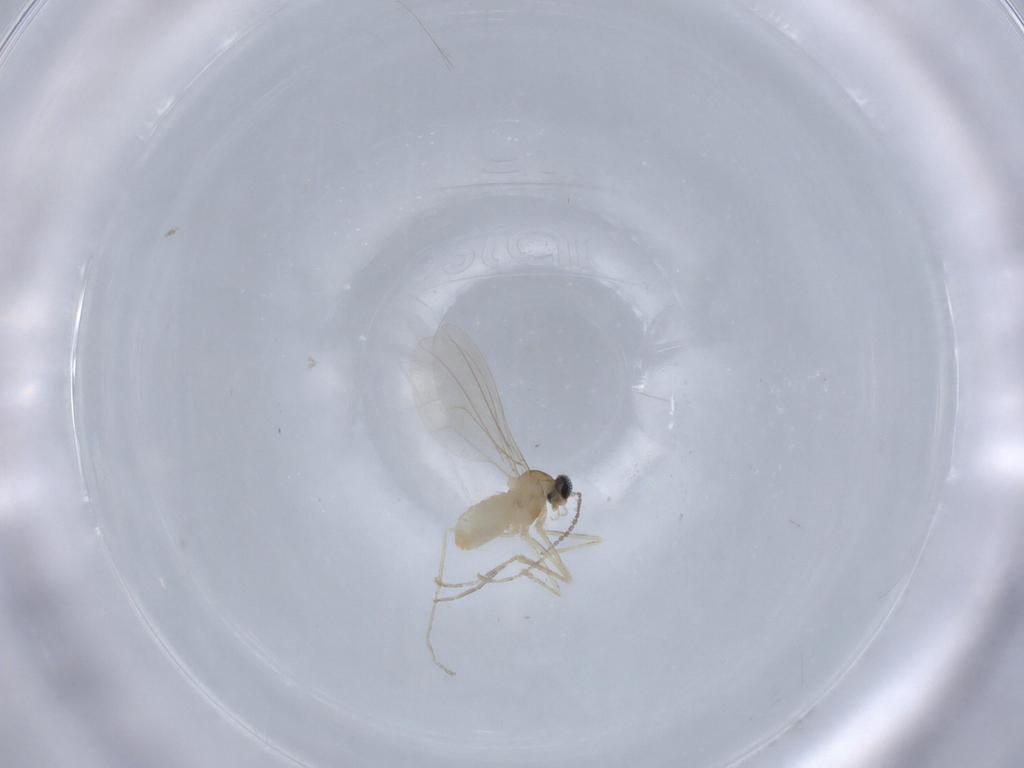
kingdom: Animalia
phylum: Arthropoda
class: Insecta
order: Diptera
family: Cecidomyiidae
